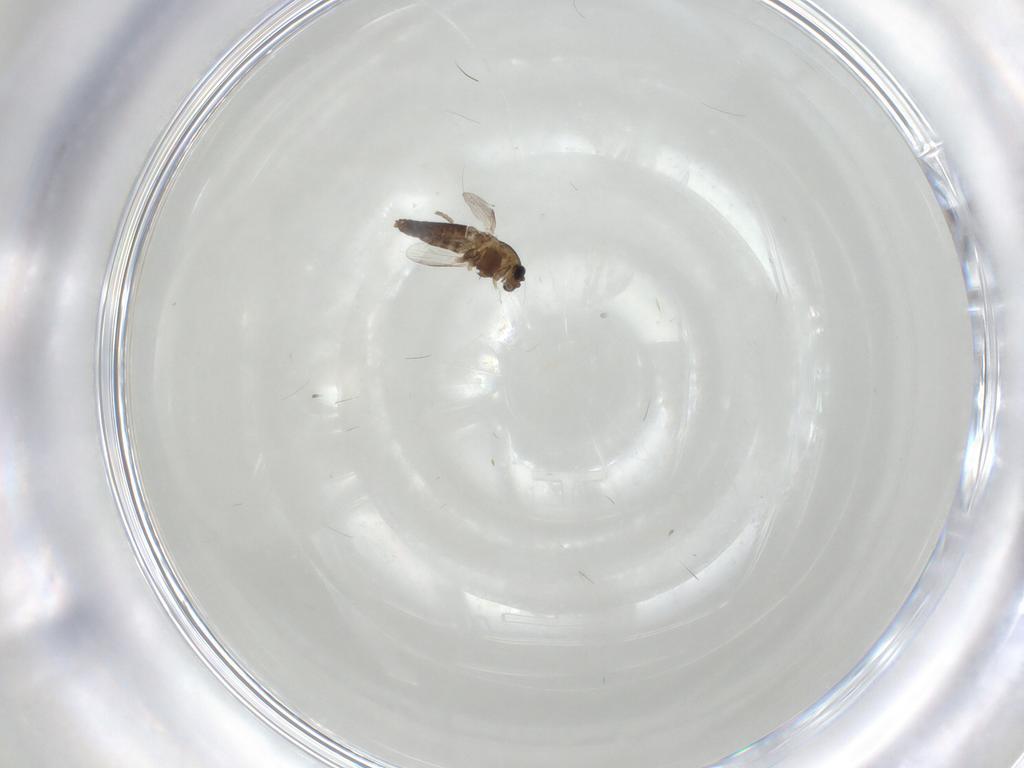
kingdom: Animalia
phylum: Arthropoda
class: Insecta
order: Diptera
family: Chironomidae
